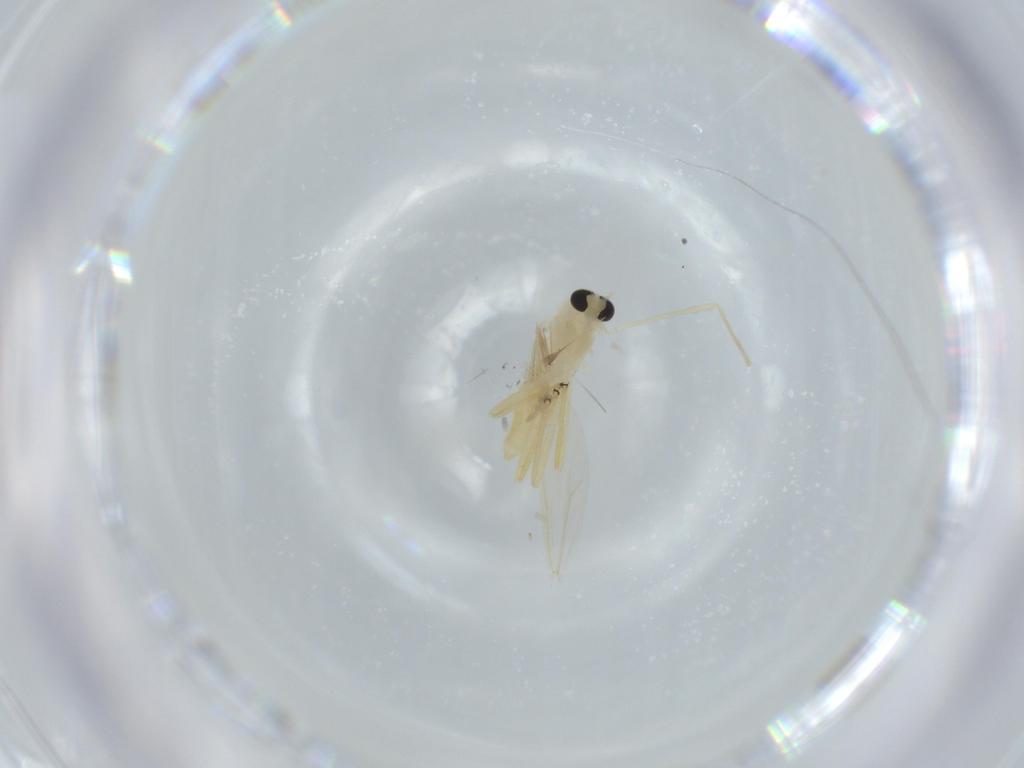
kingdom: Animalia
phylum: Arthropoda
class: Insecta
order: Diptera
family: Chironomidae
